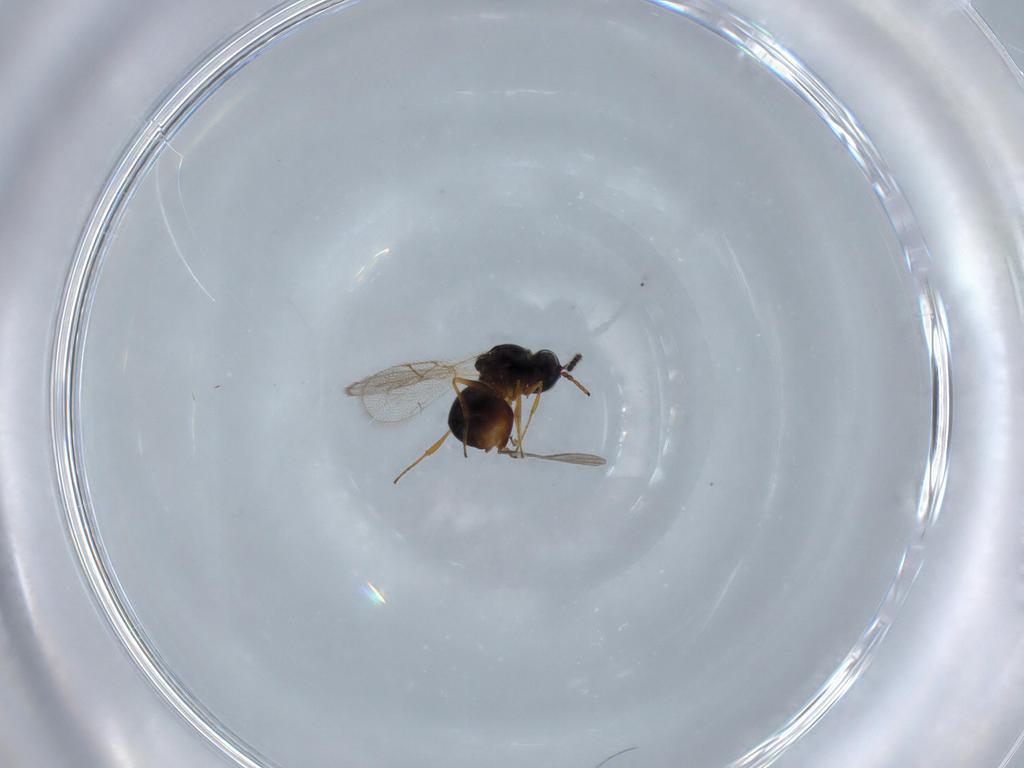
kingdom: Animalia
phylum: Arthropoda
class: Insecta
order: Hymenoptera
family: Figitidae
